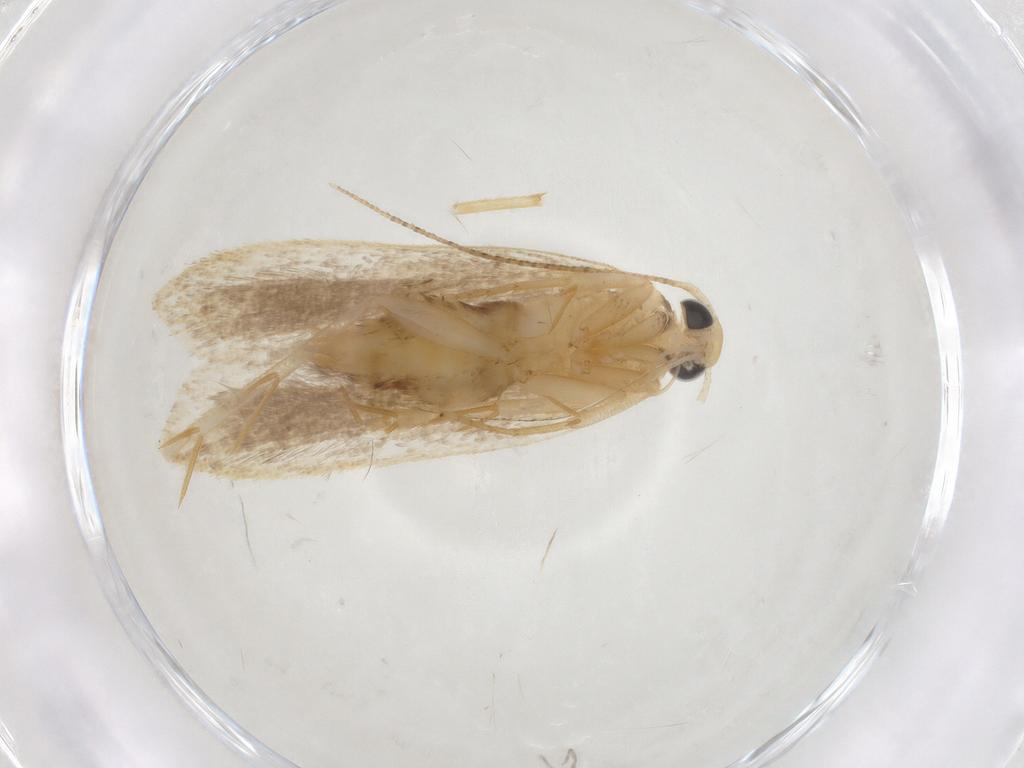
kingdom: Animalia
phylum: Arthropoda
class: Insecta
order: Lepidoptera
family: Gelechiidae
